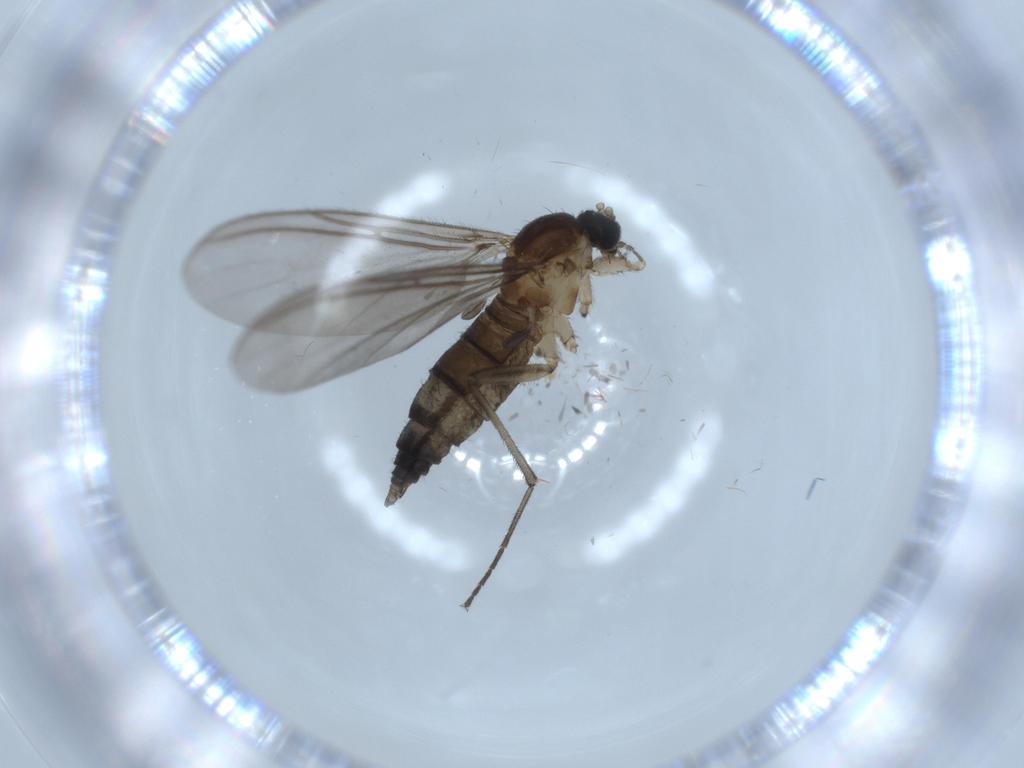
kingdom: Animalia
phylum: Arthropoda
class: Insecta
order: Diptera
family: Sciaridae
